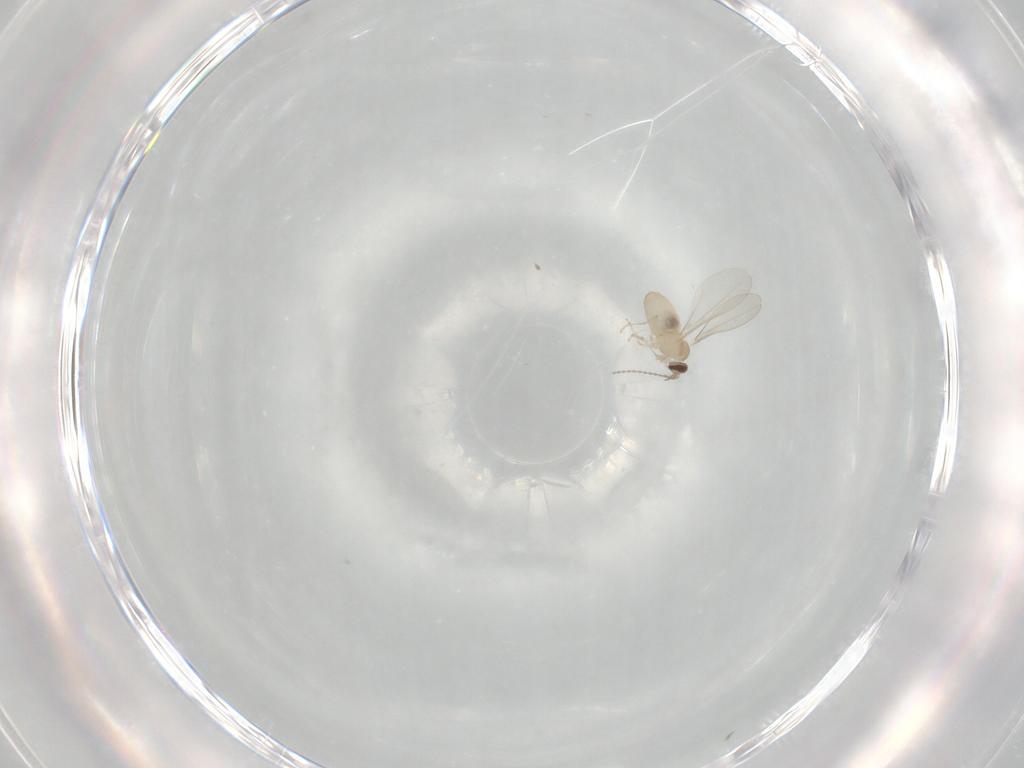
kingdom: Animalia
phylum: Arthropoda
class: Insecta
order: Diptera
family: Cecidomyiidae
